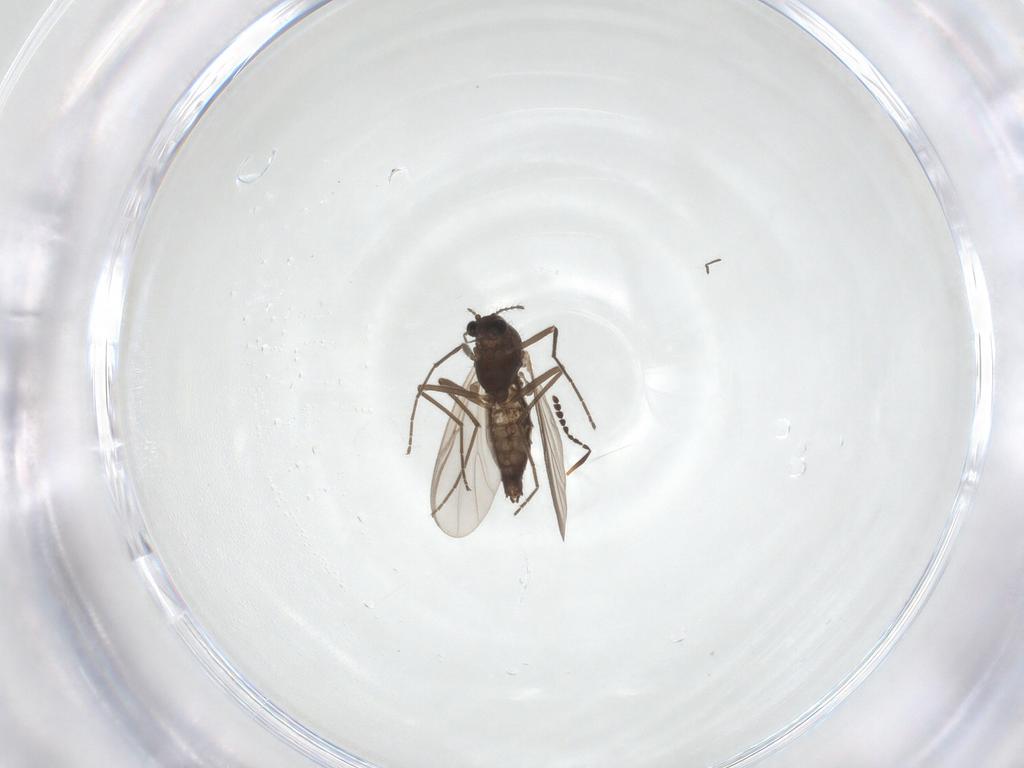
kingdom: Animalia
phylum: Arthropoda
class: Insecta
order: Diptera
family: Chironomidae
